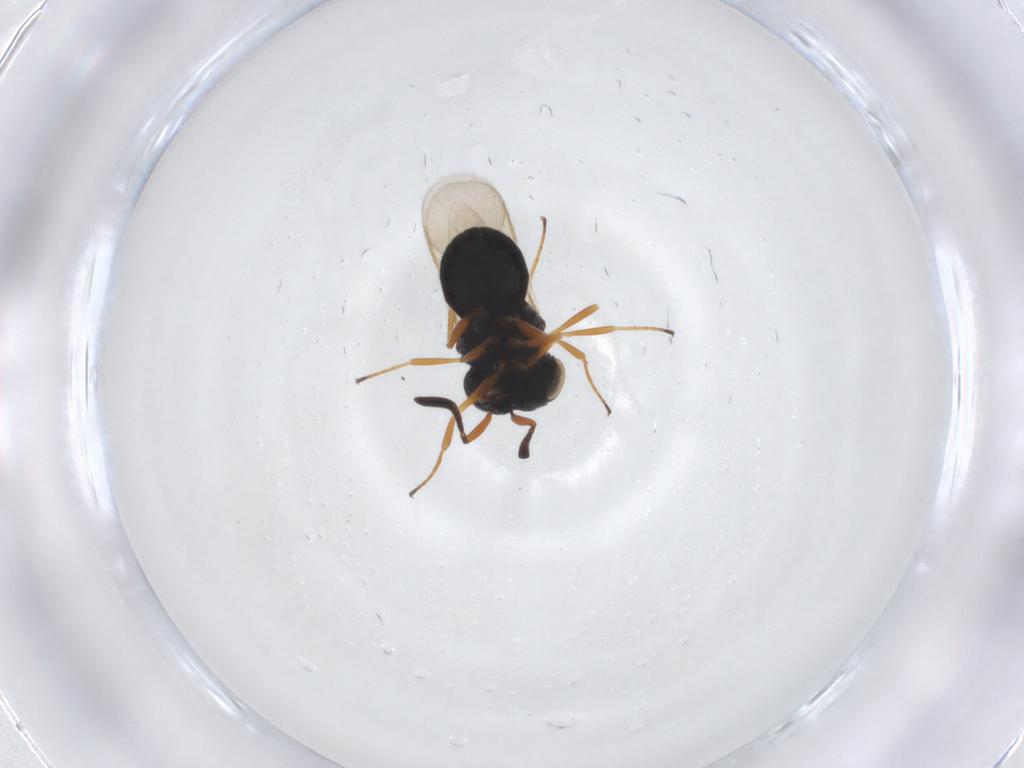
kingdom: Animalia
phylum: Arthropoda
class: Insecta
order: Hymenoptera
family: Scelionidae
